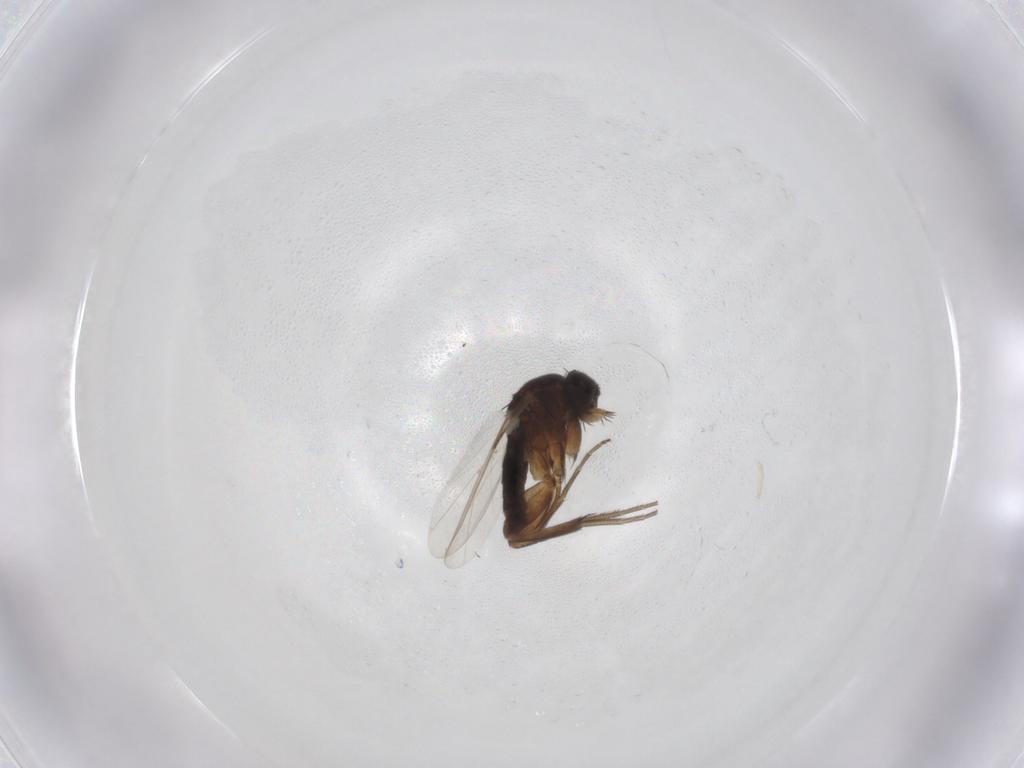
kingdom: Animalia
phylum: Arthropoda
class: Insecta
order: Diptera
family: Phoridae
